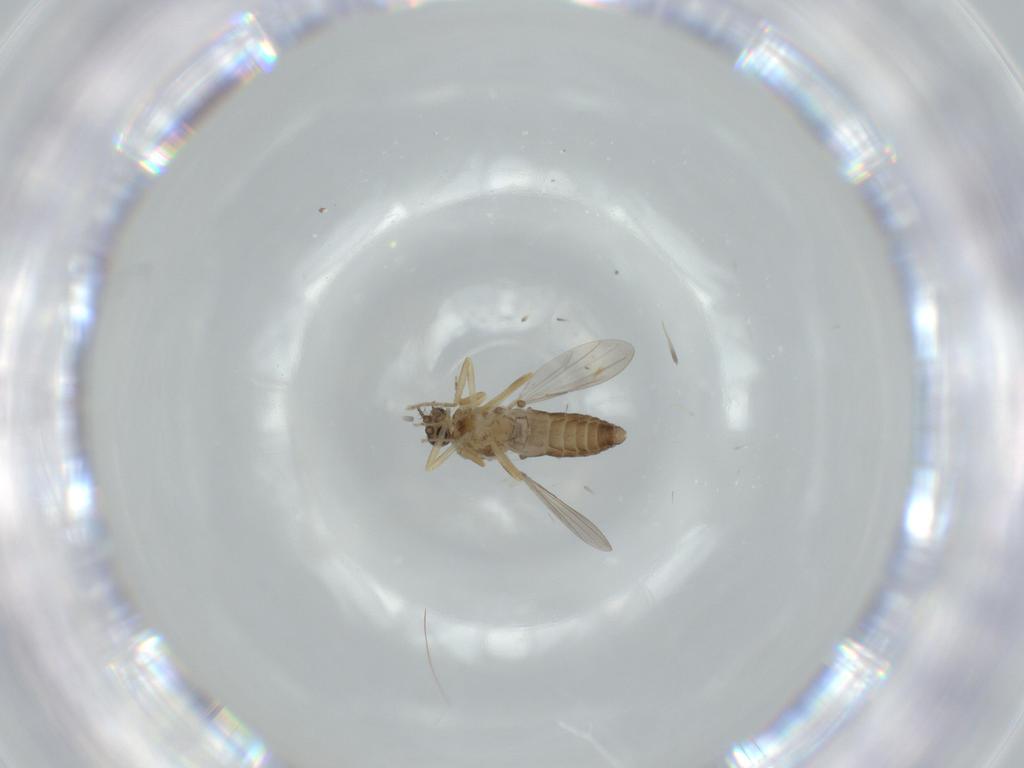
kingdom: Animalia
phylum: Arthropoda
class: Insecta
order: Diptera
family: Ceratopogonidae
